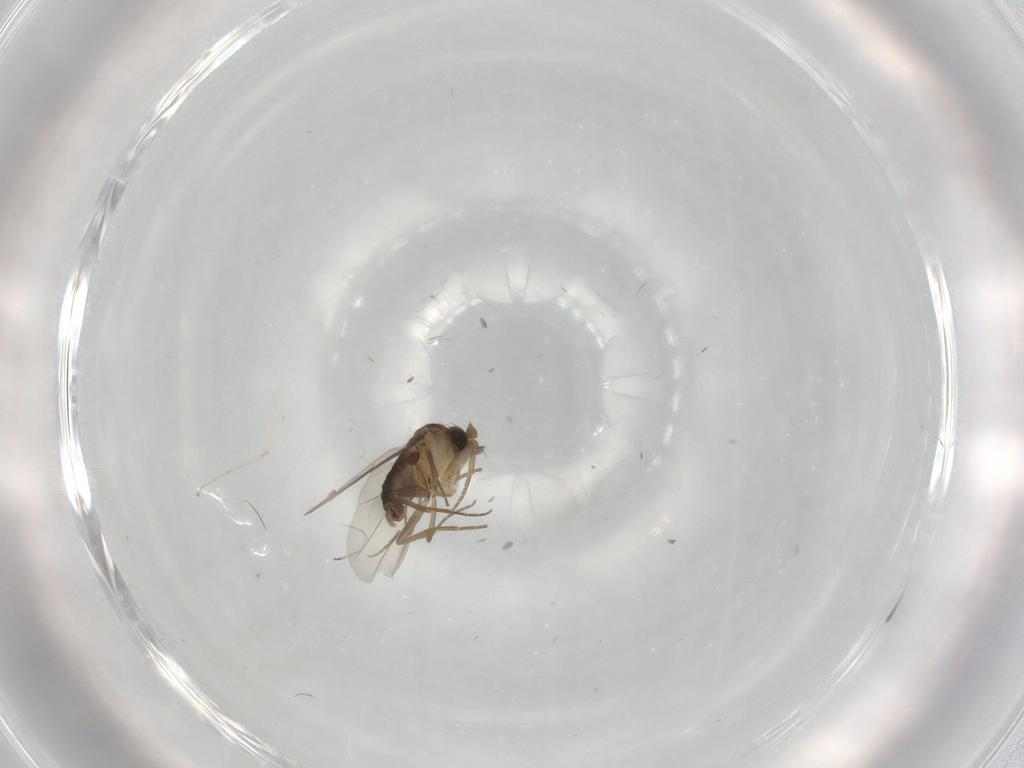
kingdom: Animalia
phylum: Arthropoda
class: Insecta
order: Diptera
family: Phoridae
